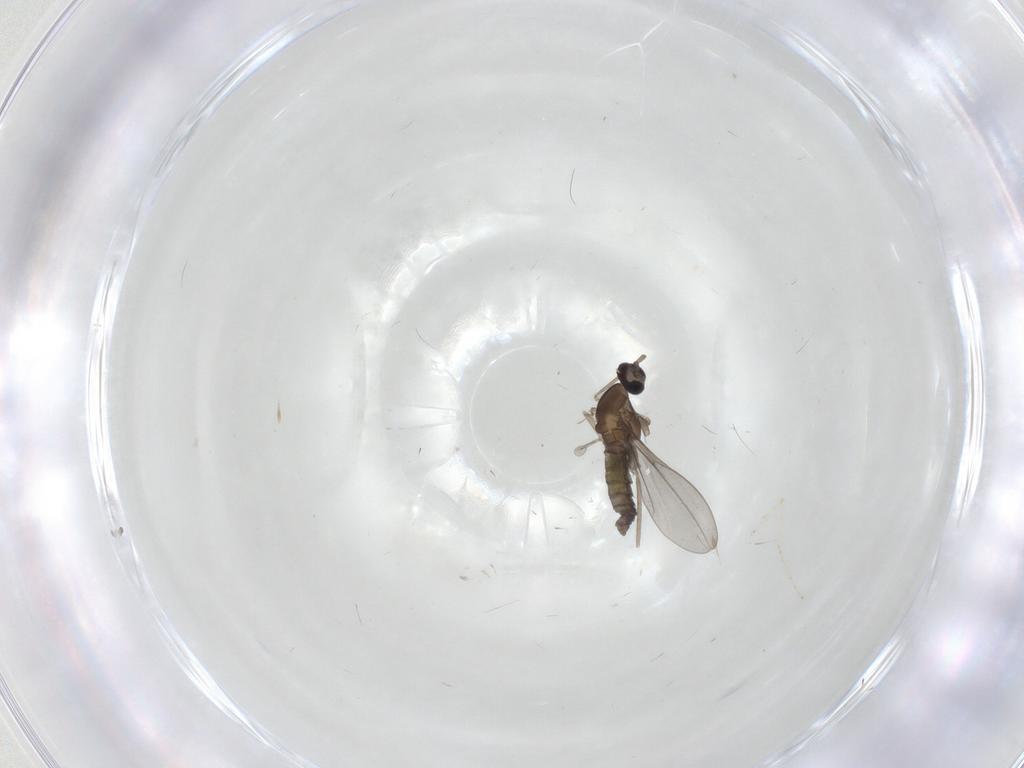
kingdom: Animalia
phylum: Arthropoda
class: Insecta
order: Diptera
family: Cecidomyiidae
